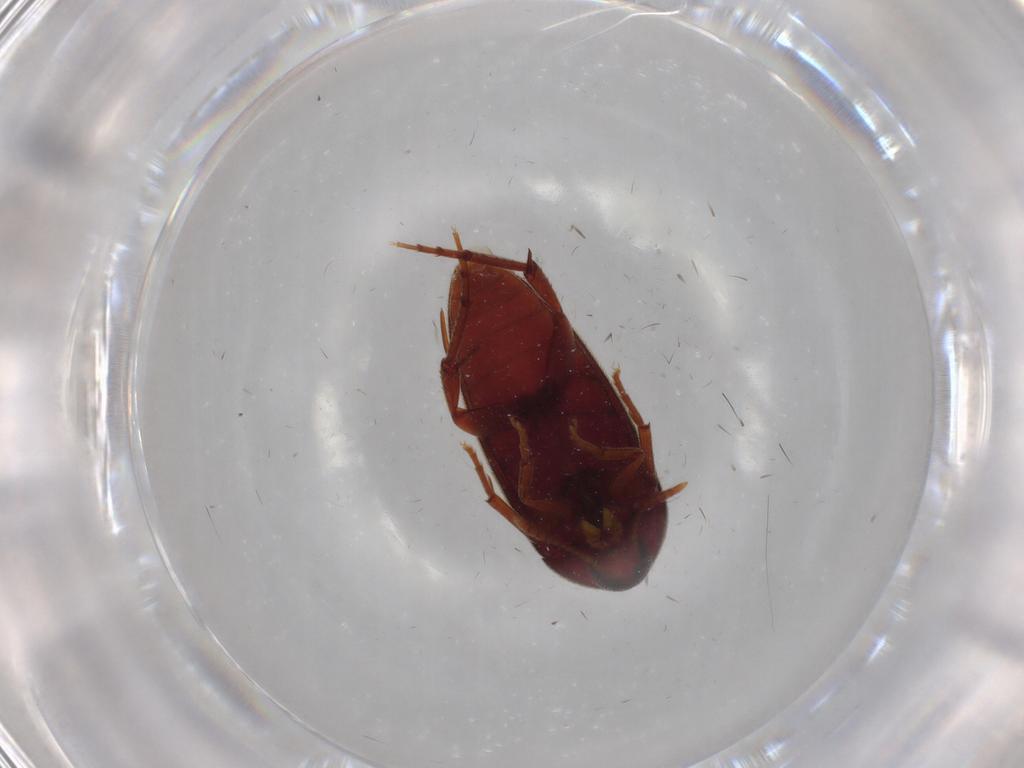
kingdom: Animalia
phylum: Arthropoda
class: Insecta
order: Coleoptera
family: Melandryidae
